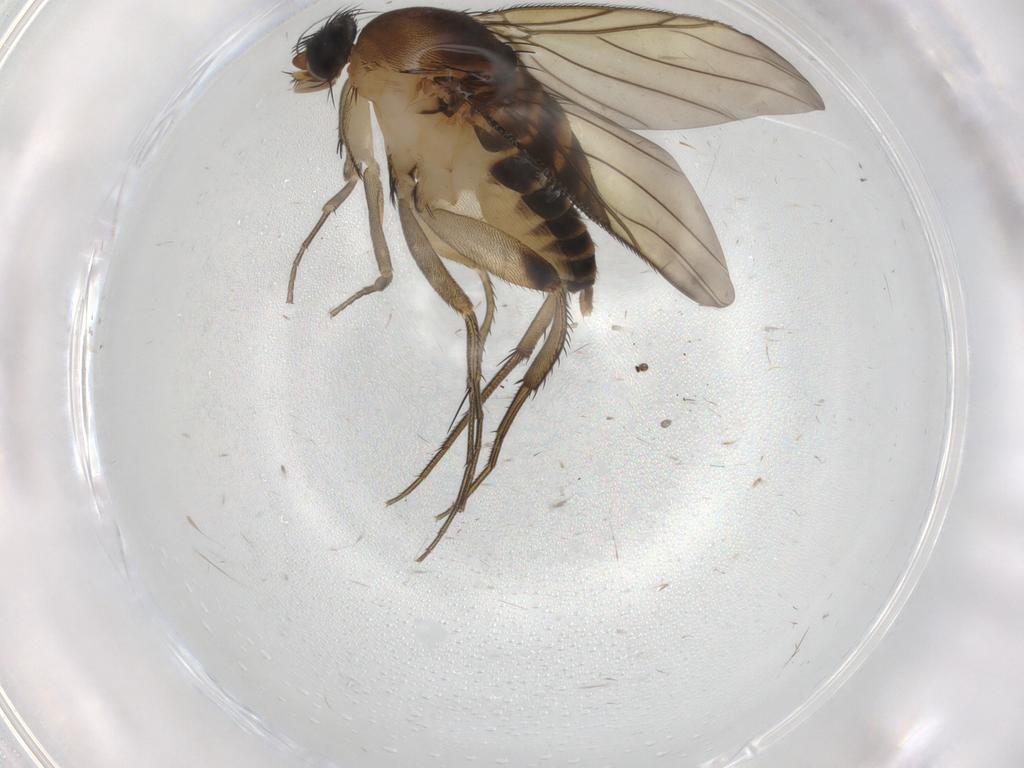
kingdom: Animalia
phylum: Arthropoda
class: Insecta
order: Diptera
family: Phoridae
